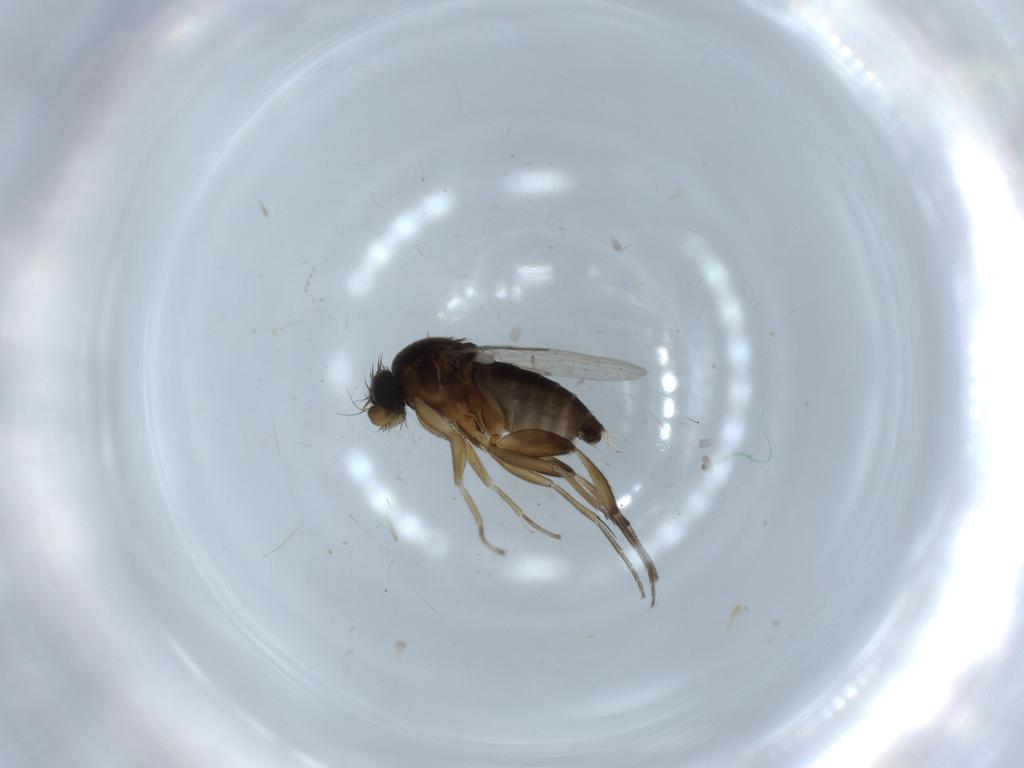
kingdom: Animalia
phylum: Arthropoda
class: Insecta
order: Diptera
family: Phoridae
